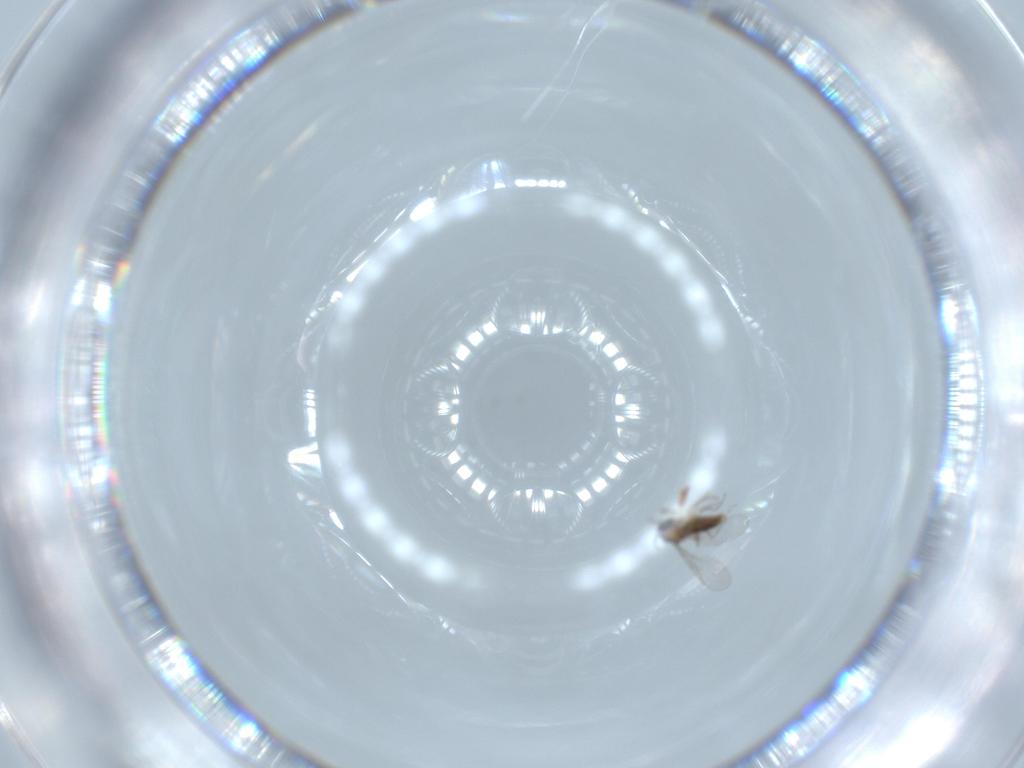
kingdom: Animalia
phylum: Arthropoda
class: Insecta
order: Diptera
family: Cecidomyiidae
